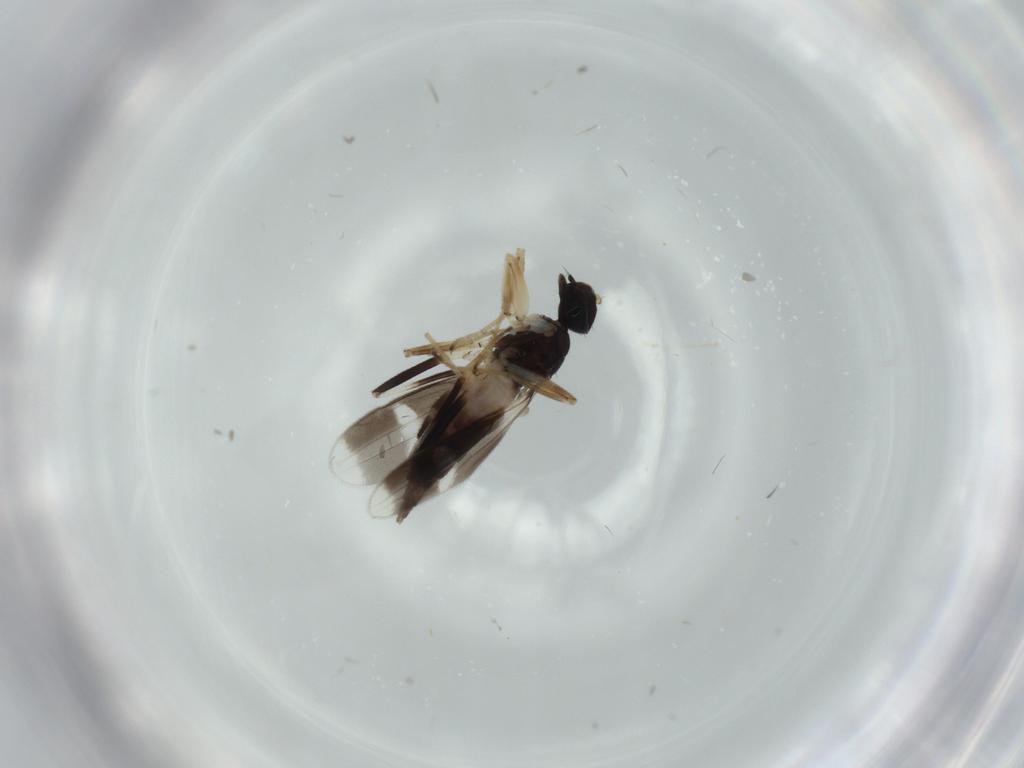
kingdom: Animalia
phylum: Arthropoda
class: Insecta
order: Diptera
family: Hybotidae
